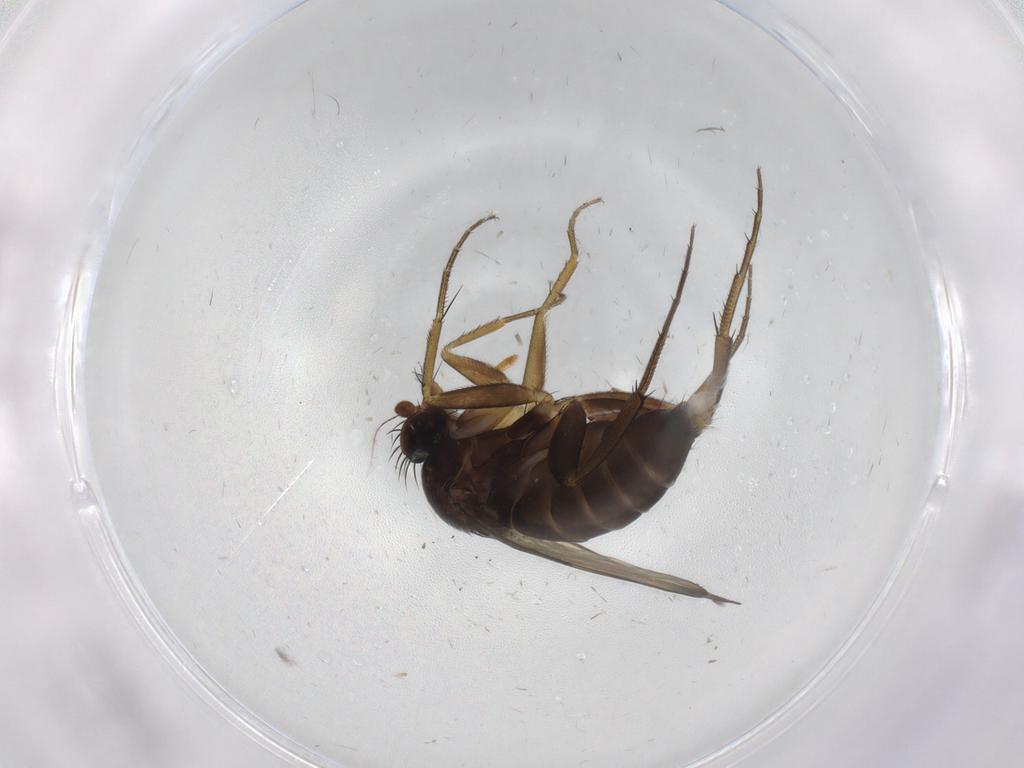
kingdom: Animalia
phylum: Arthropoda
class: Insecta
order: Diptera
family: Phoridae
